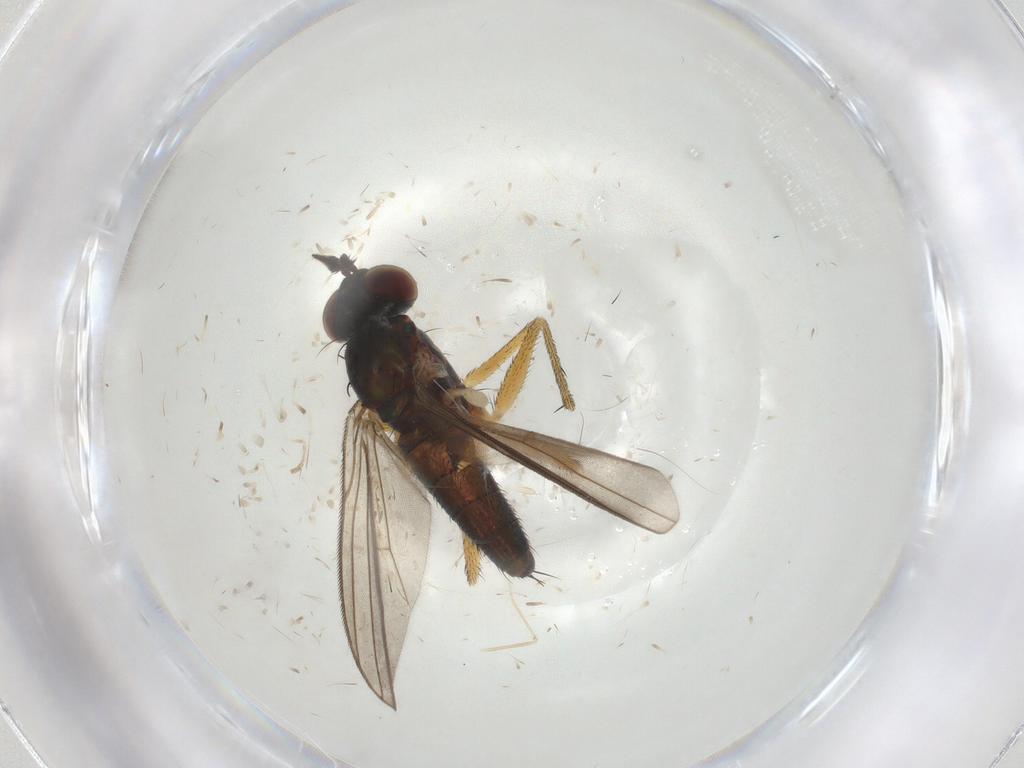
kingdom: Animalia
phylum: Arthropoda
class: Insecta
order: Diptera
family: Dolichopodidae
